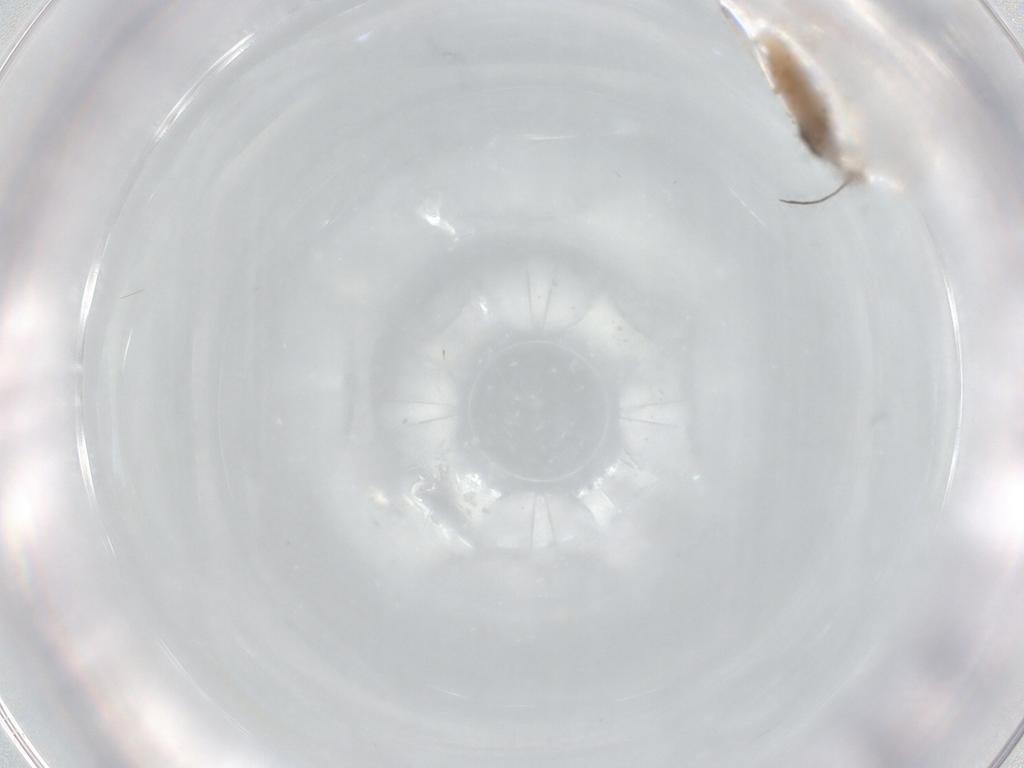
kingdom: Animalia
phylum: Arthropoda
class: Insecta
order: Hemiptera
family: Aphididae
